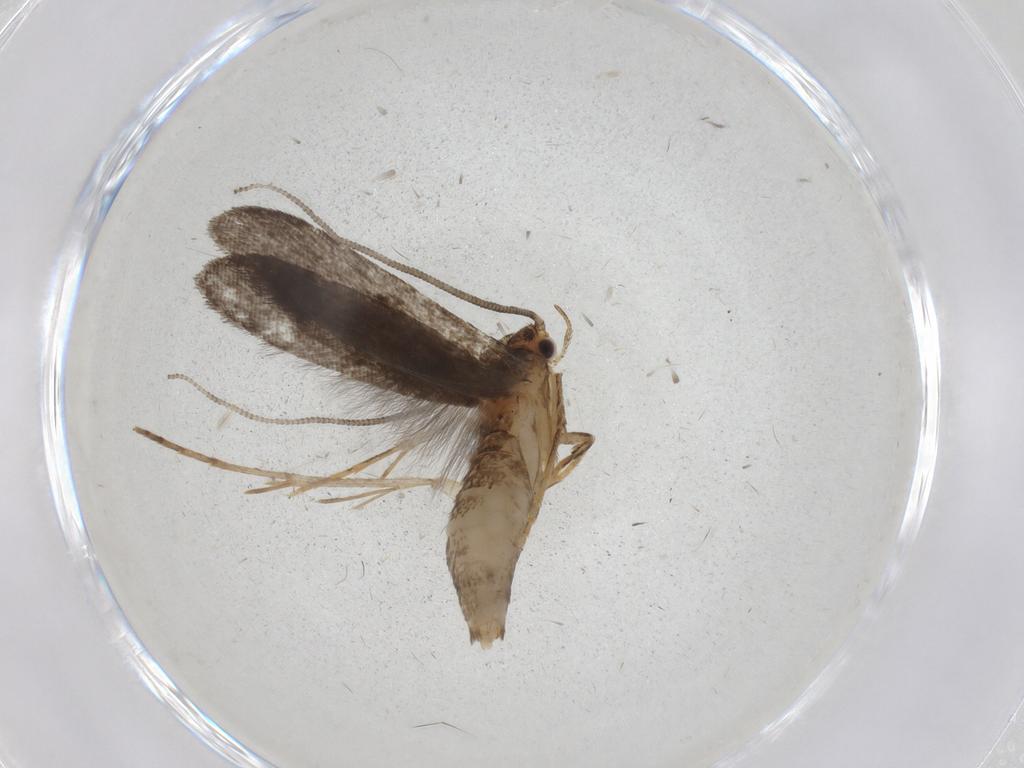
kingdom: Animalia
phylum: Arthropoda
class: Insecta
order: Lepidoptera
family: Tineidae
